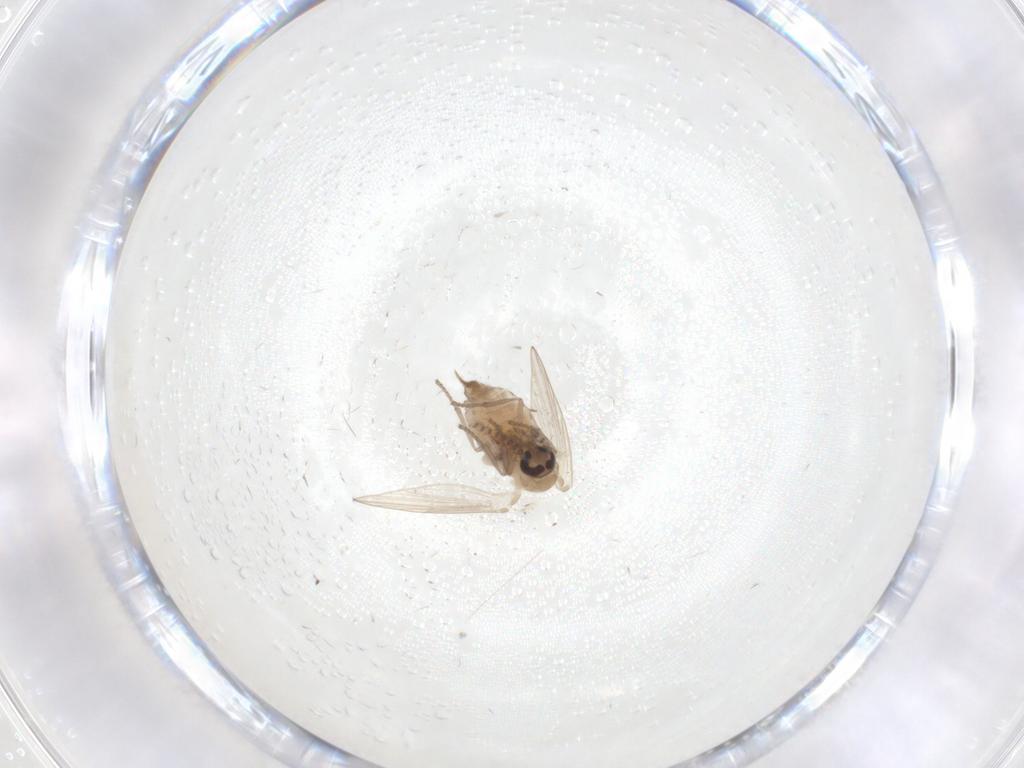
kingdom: Animalia
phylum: Arthropoda
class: Insecta
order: Diptera
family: Psychodidae
